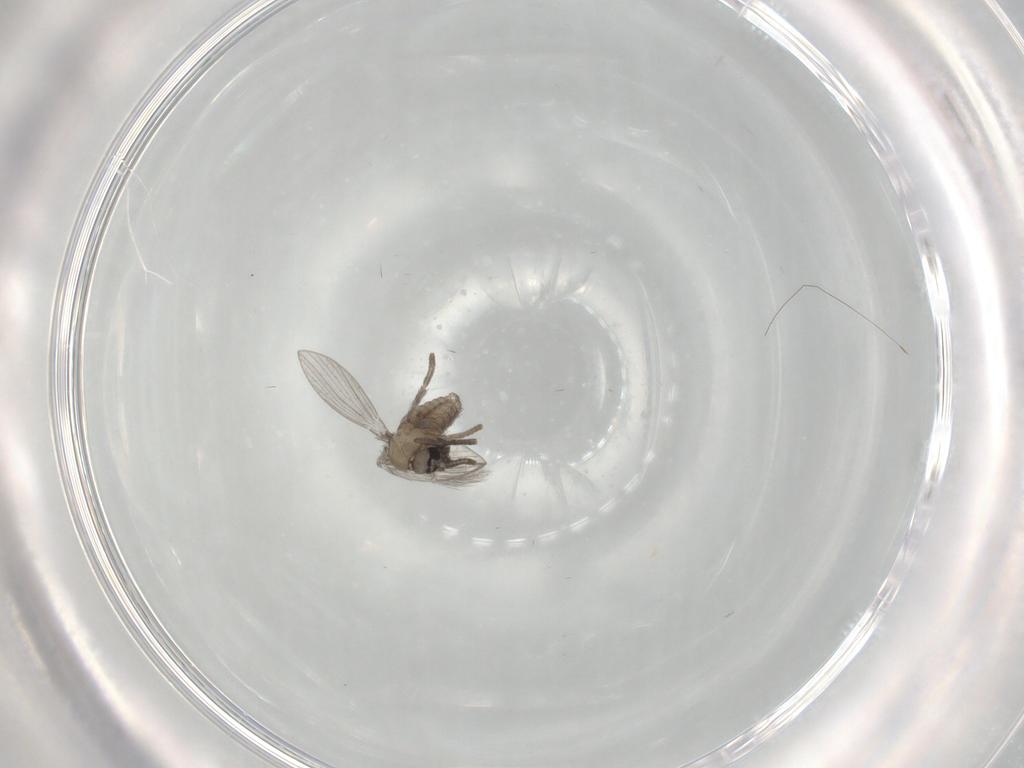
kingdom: Animalia
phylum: Arthropoda
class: Insecta
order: Diptera
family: Psychodidae
